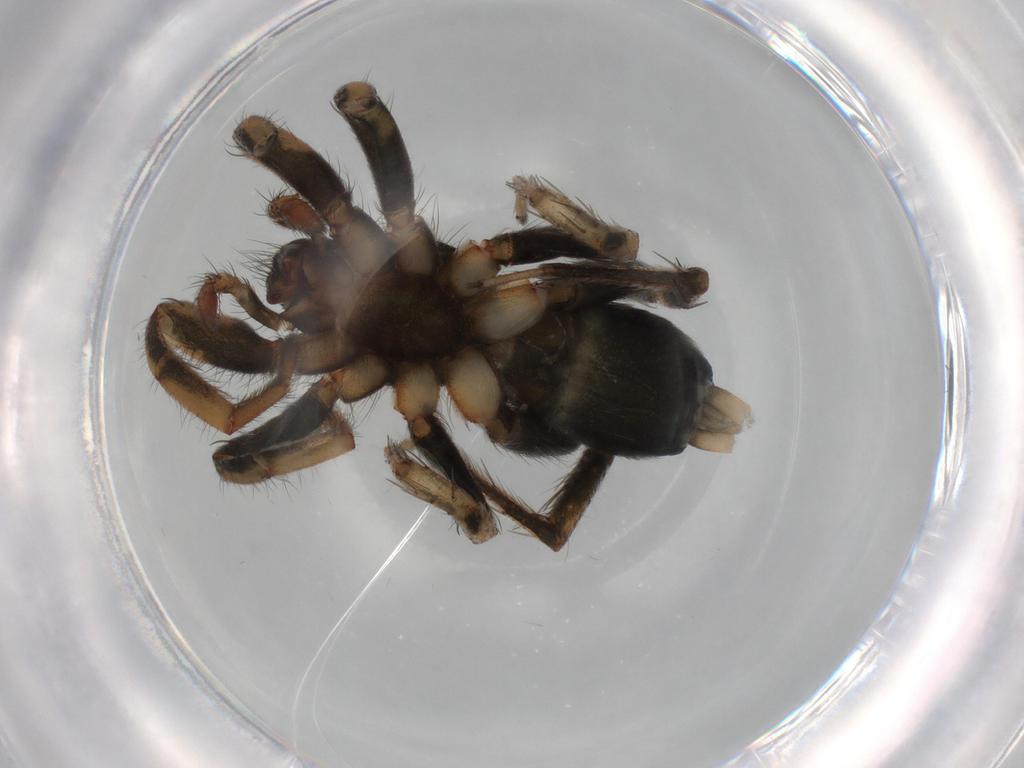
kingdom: Animalia
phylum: Arthropoda
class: Arachnida
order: Araneae
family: Gnaphosidae
